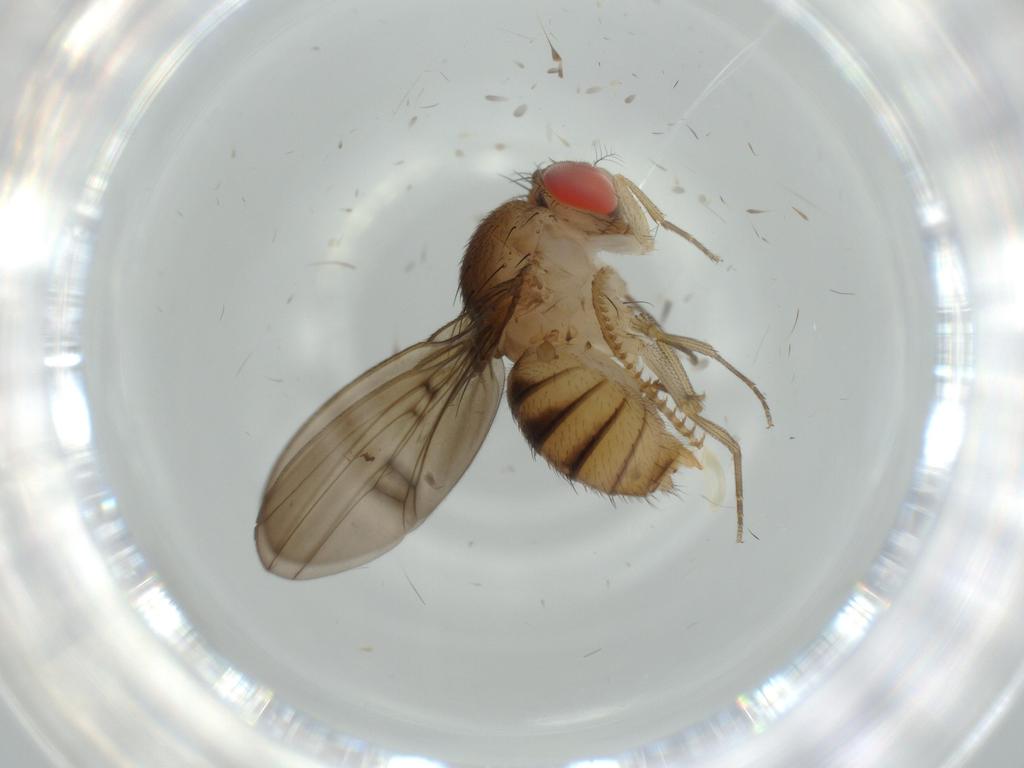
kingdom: Animalia
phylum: Arthropoda
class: Insecta
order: Diptera
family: Drosophilidae
